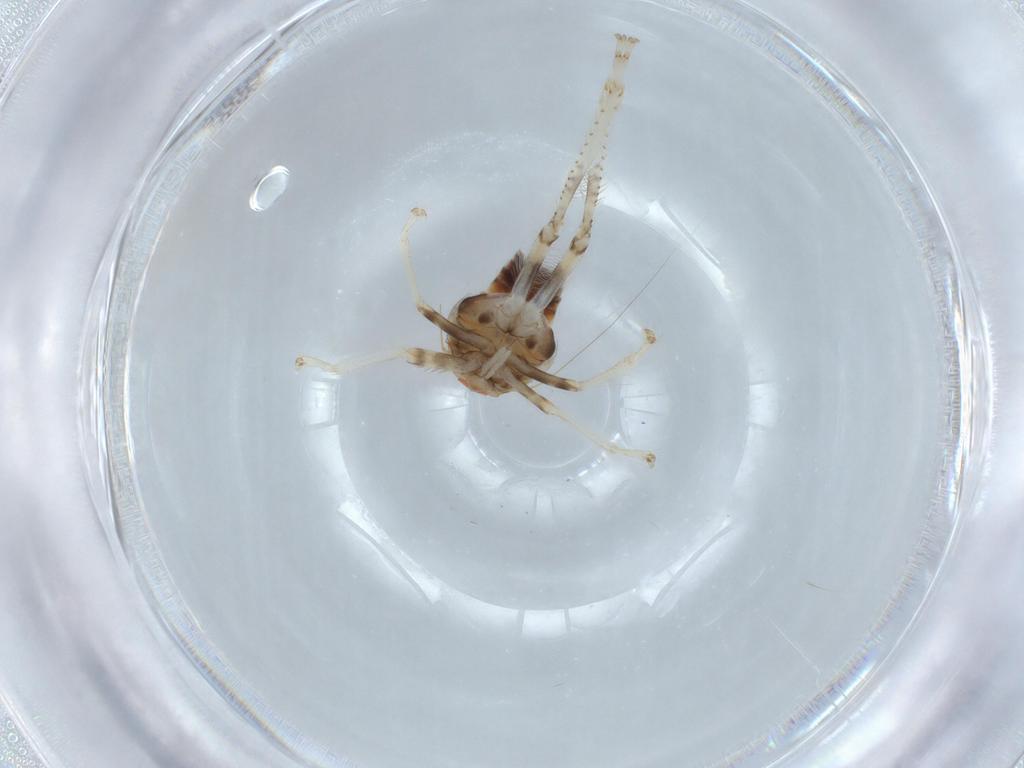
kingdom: Animalia
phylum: Arthropoda
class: Insecta
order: Hemiptera
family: Cicadellidae
